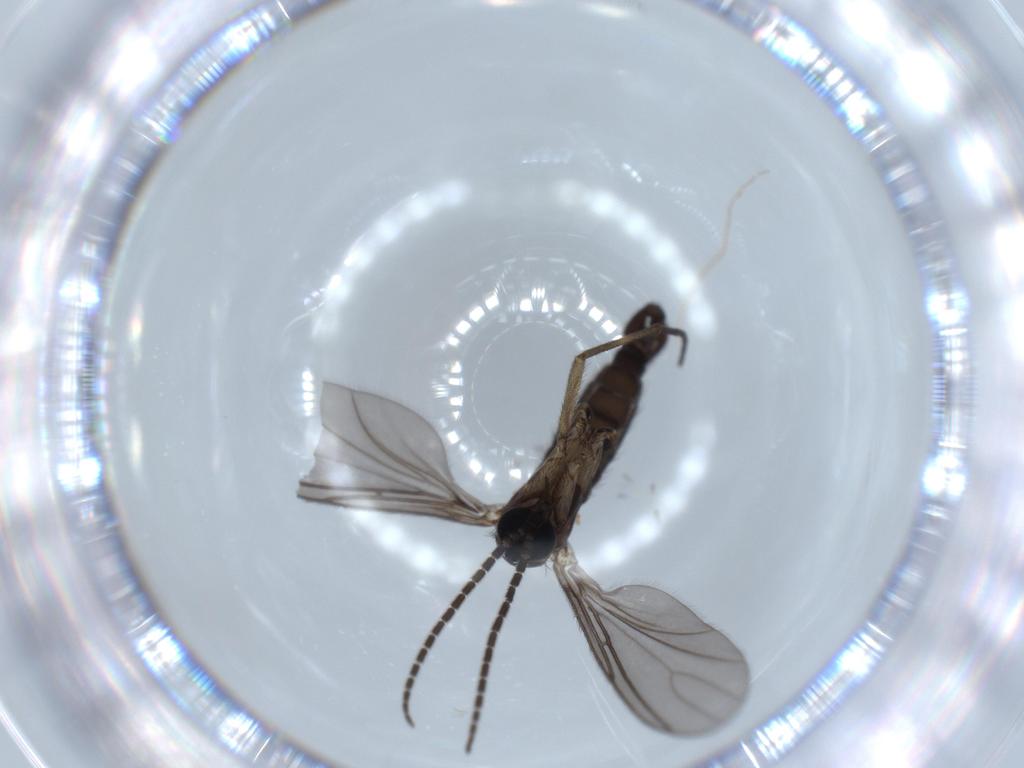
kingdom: Animalia
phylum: Arthropoda
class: Insecta
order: Diptera
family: Sciaridae
